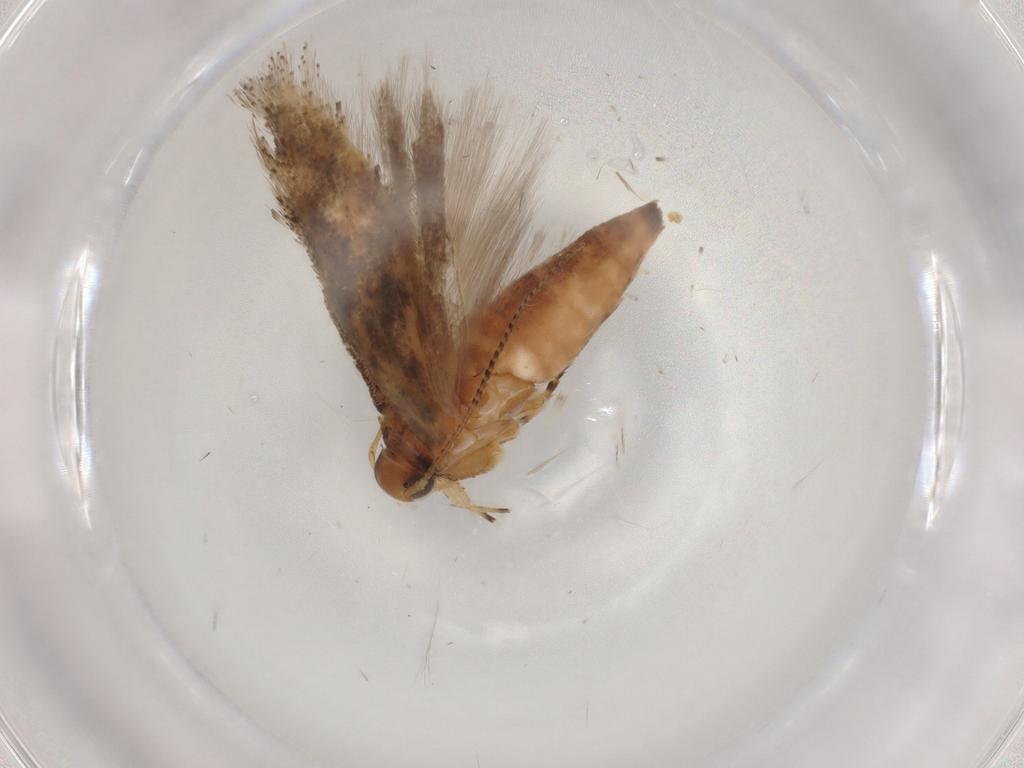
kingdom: Animalia
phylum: Arthropoda
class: Insecta
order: Lepidoptera
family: Gelechiidae
